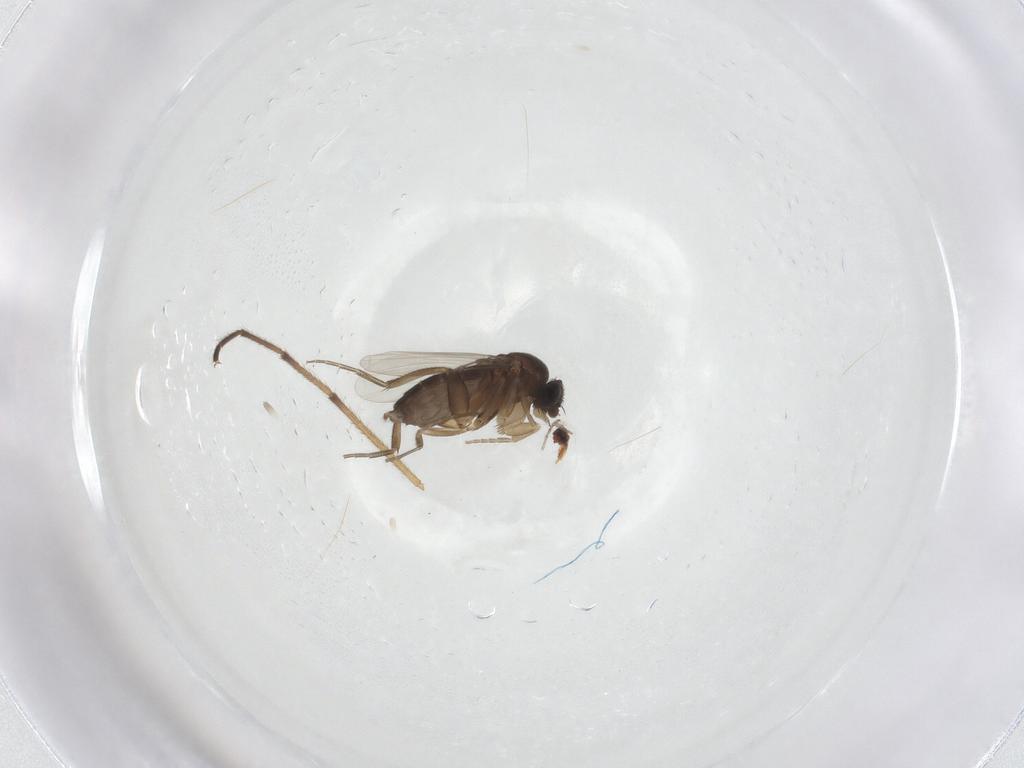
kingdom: Animalia
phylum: Arthropoda
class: Insecta
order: Diptera
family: Phoridae
